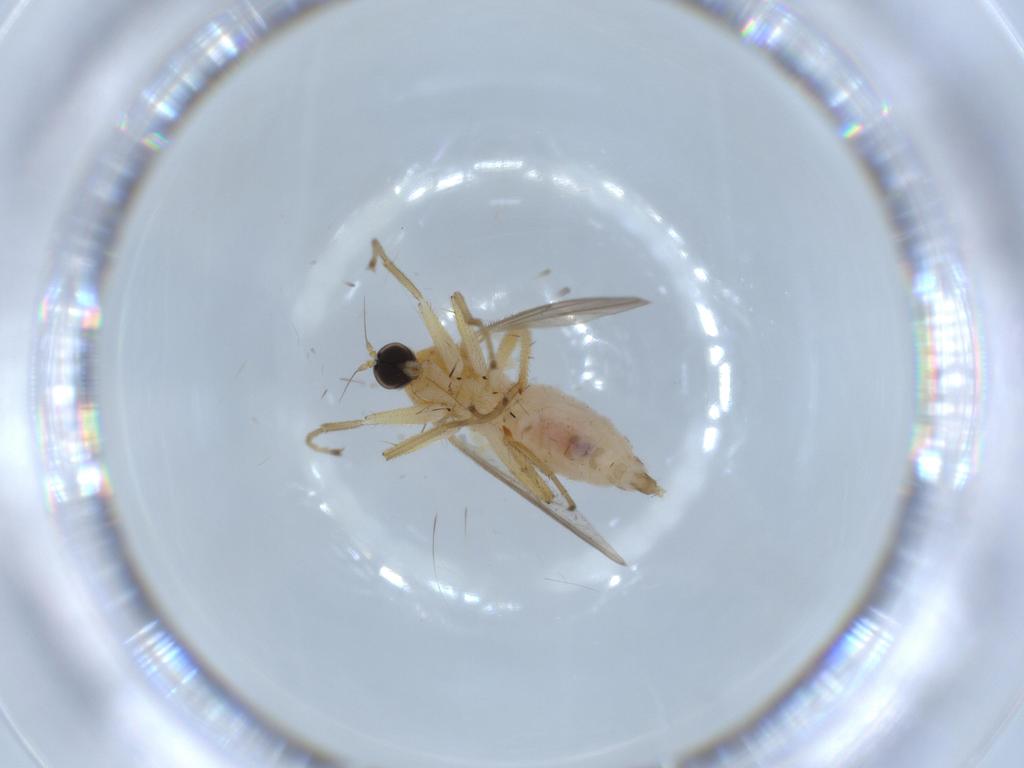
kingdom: Animalia
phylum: Arthropoda
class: Insecta
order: Diptera
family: Hybotidae
